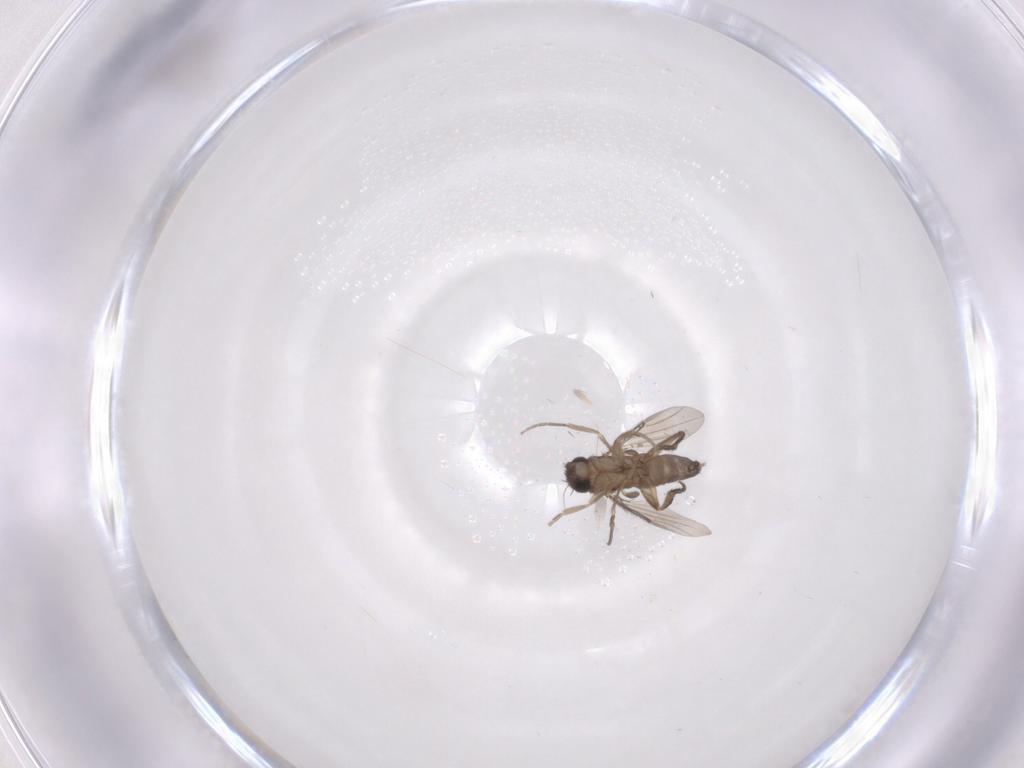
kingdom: Animalia
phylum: Arthropoda
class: Insecta
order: Diptera
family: Phoridae
